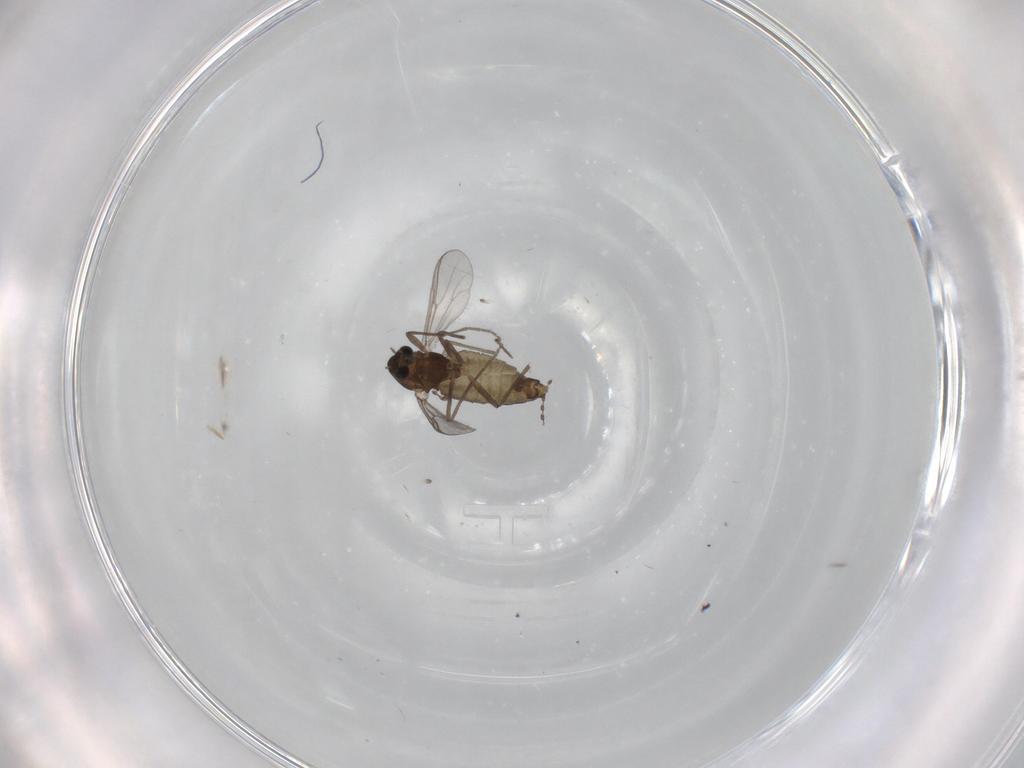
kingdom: Animalia
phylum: Arthropoda
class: Insecta
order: Diptera
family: Chironomidae
